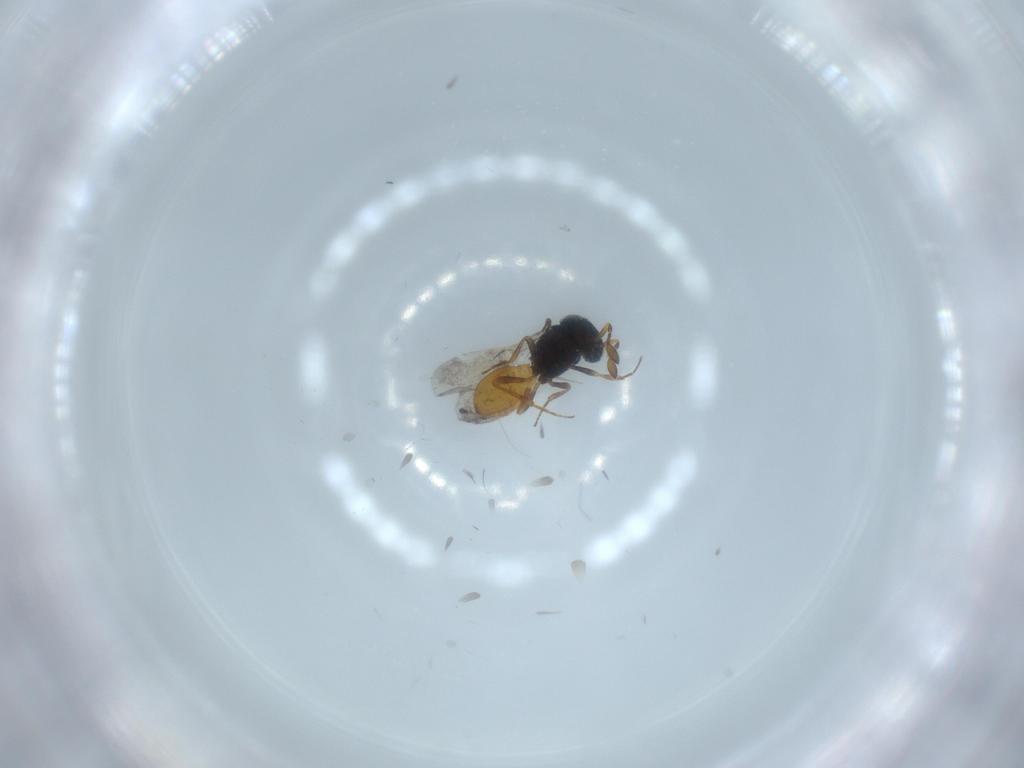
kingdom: Animalia
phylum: Arthropoda
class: Insecta
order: Hymenoptera
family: Scelionidae
